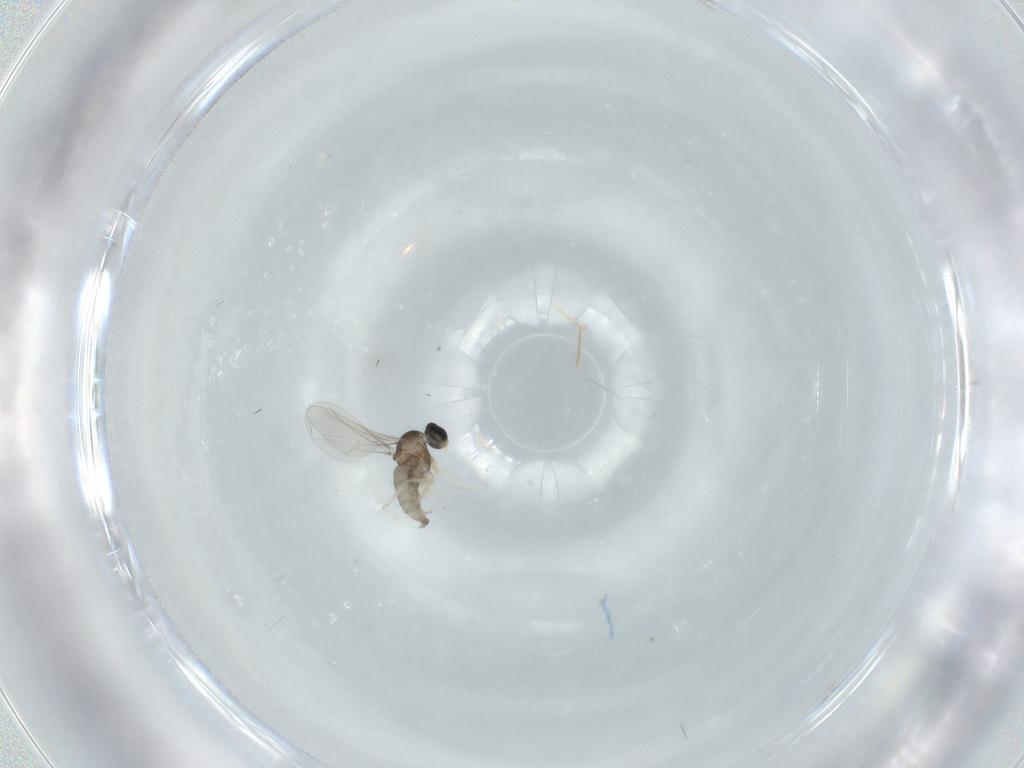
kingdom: Animalia
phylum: Arthropoda
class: Insecta
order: Diptera
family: Cecidomyiidae
